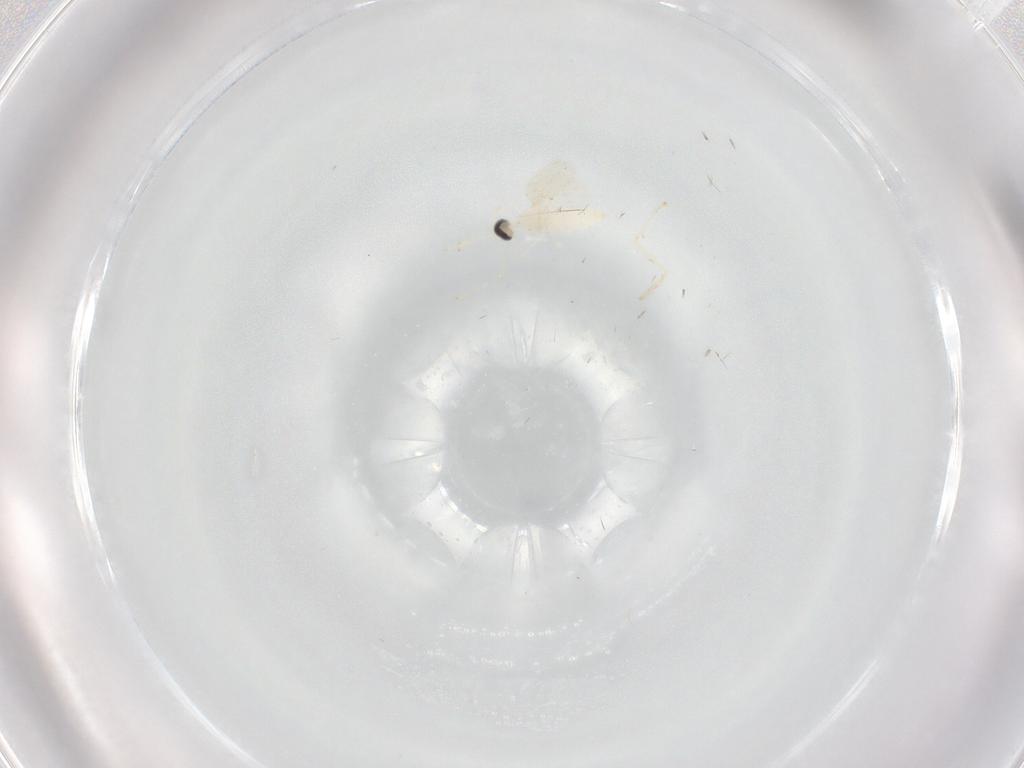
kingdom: Animalia
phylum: Arthropoda
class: Insecta
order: Diptera
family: Cecidomyiidae
